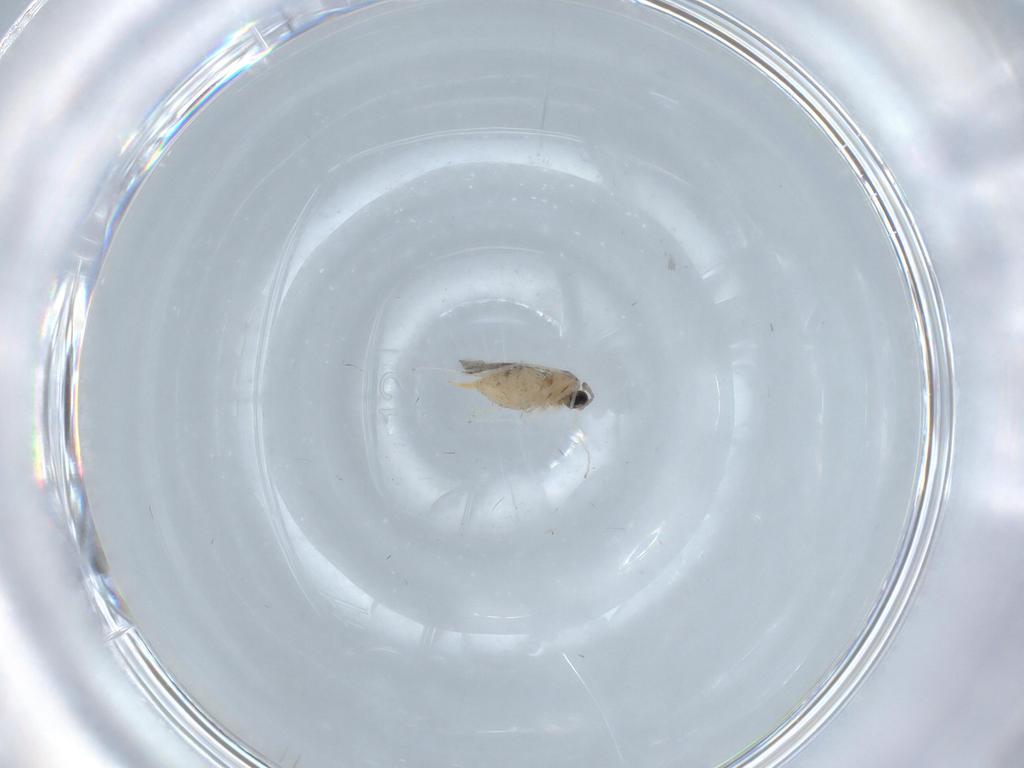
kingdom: Animalia
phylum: Arthropoda
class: Insecta
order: Diptera
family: Cecidomyiidae
